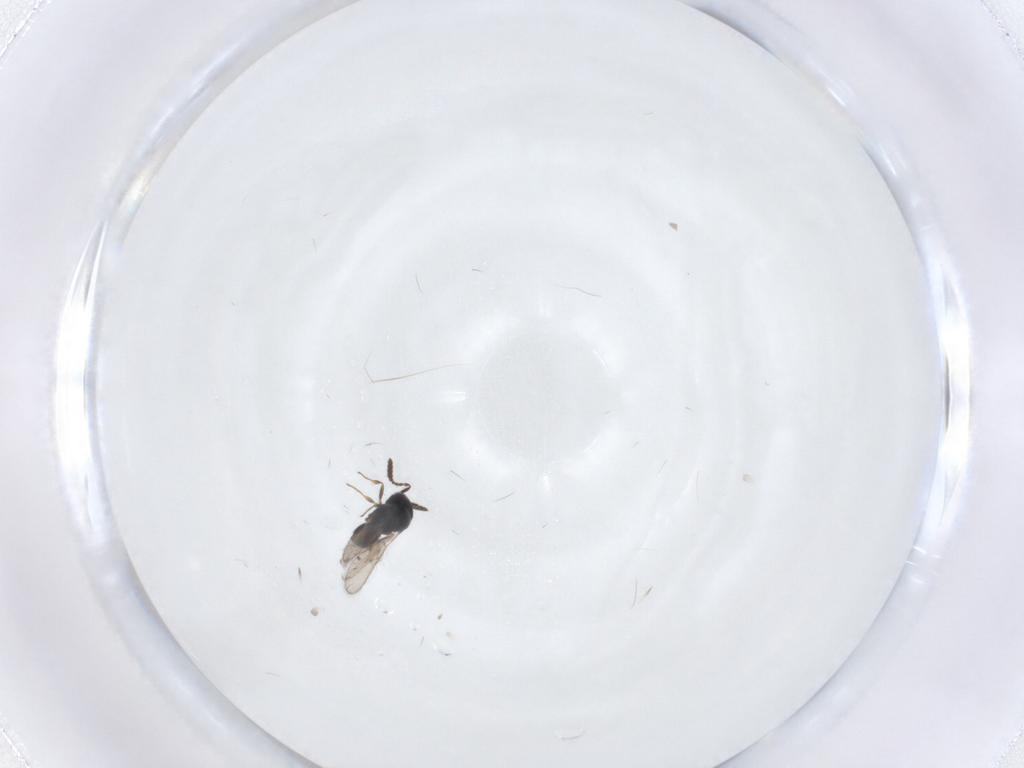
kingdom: Animalia
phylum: Arthropoda
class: Insecta
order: Hymenoptera
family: Scelionidae
